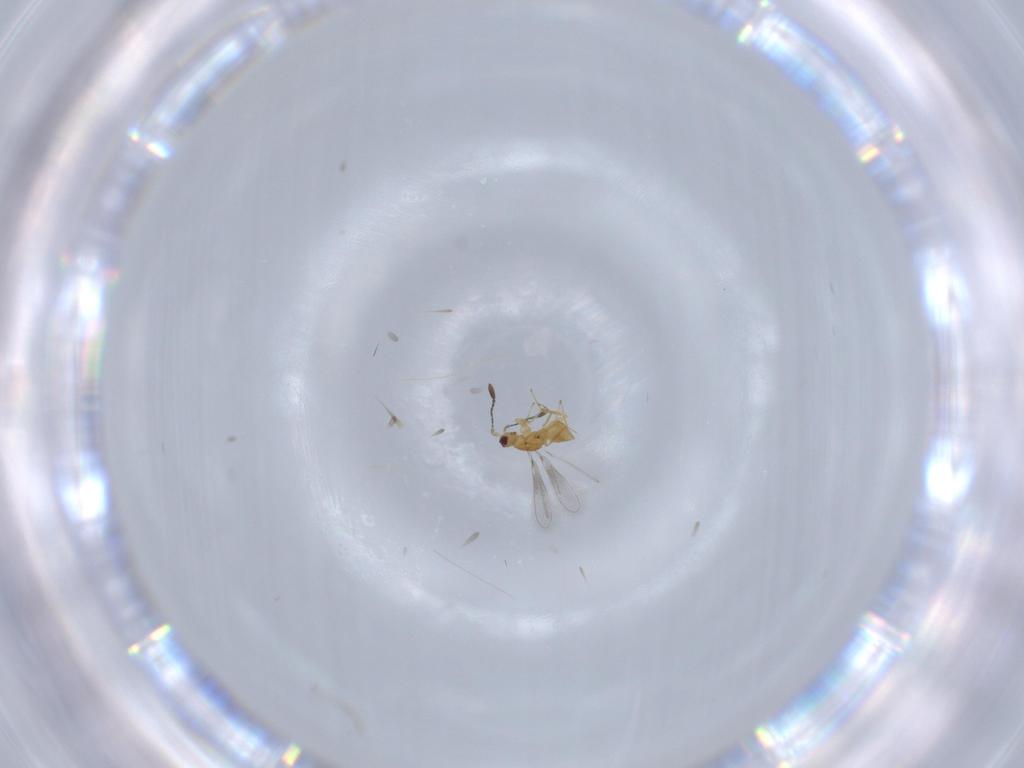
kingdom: Animalia
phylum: Arthropoda
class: Insecta
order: Hymenoptera
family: Mymaridae
